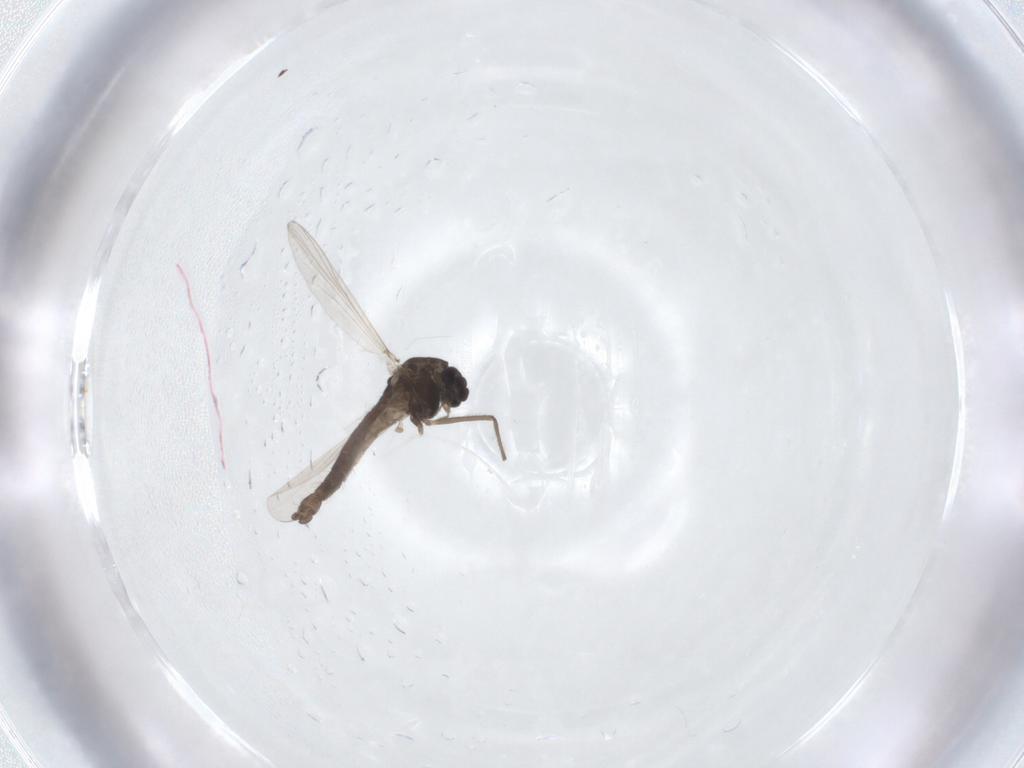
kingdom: Animalia
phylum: Arthropoda
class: Insecta
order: Diptera
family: Chironomidae
